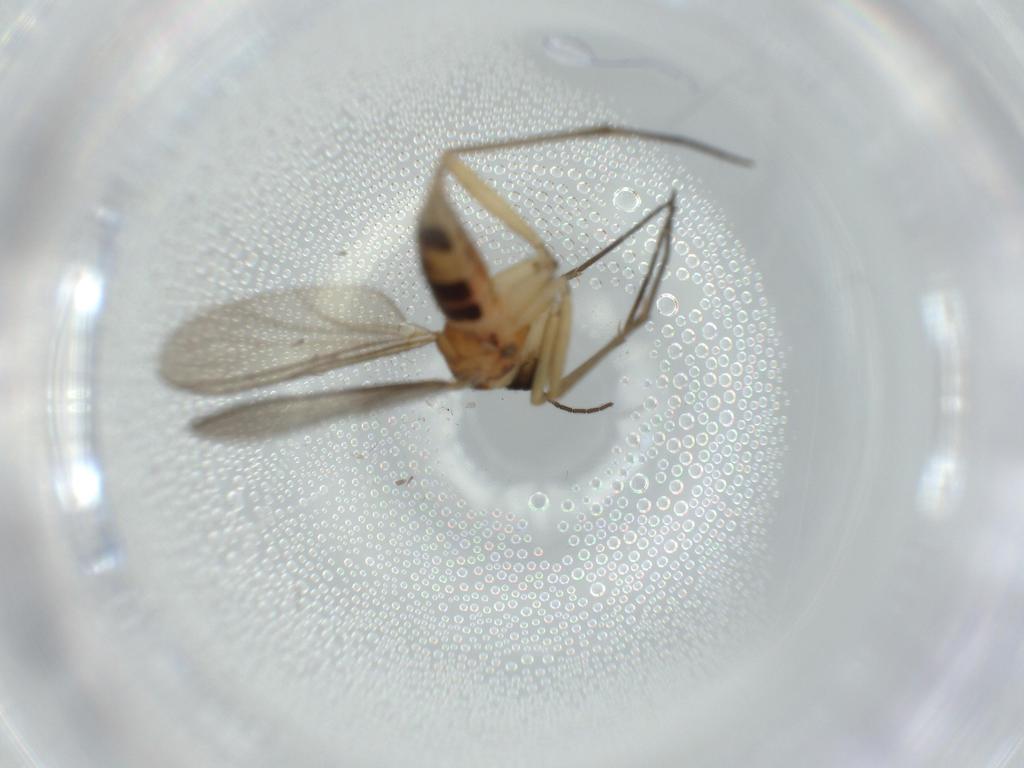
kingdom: Animalia
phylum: Arthropoda
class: Insecta
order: Diptera
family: Sciaridae
